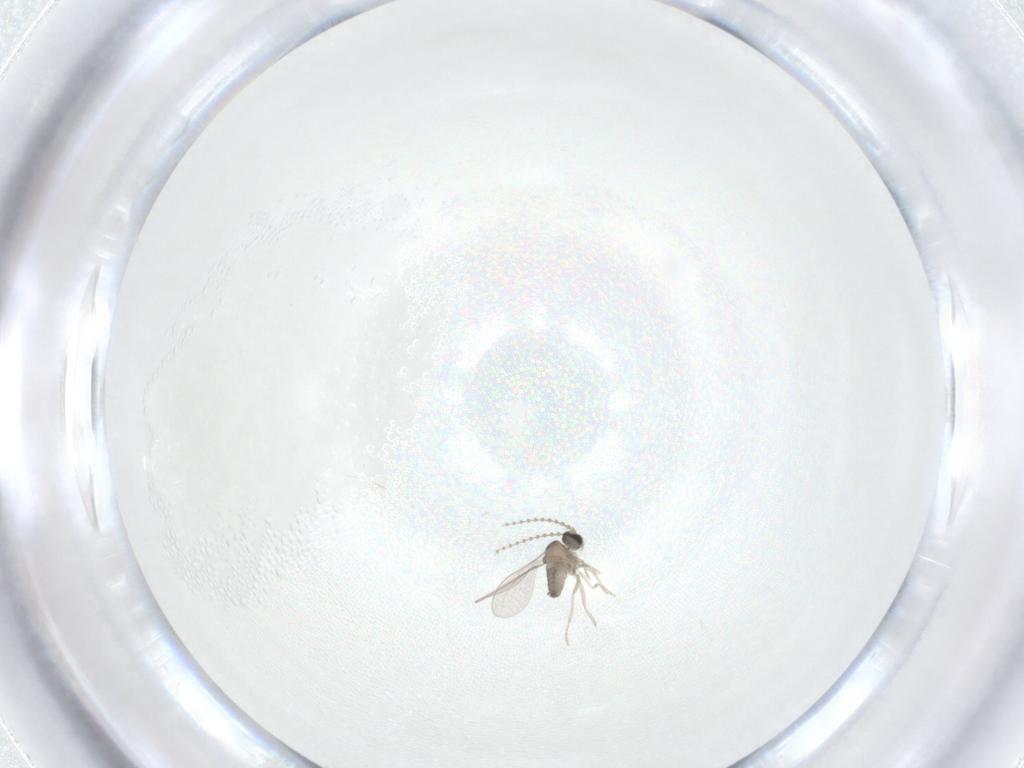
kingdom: Animalia
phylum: Arthropoda
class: Insecta
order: Diptera
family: Cecidomyiidae
